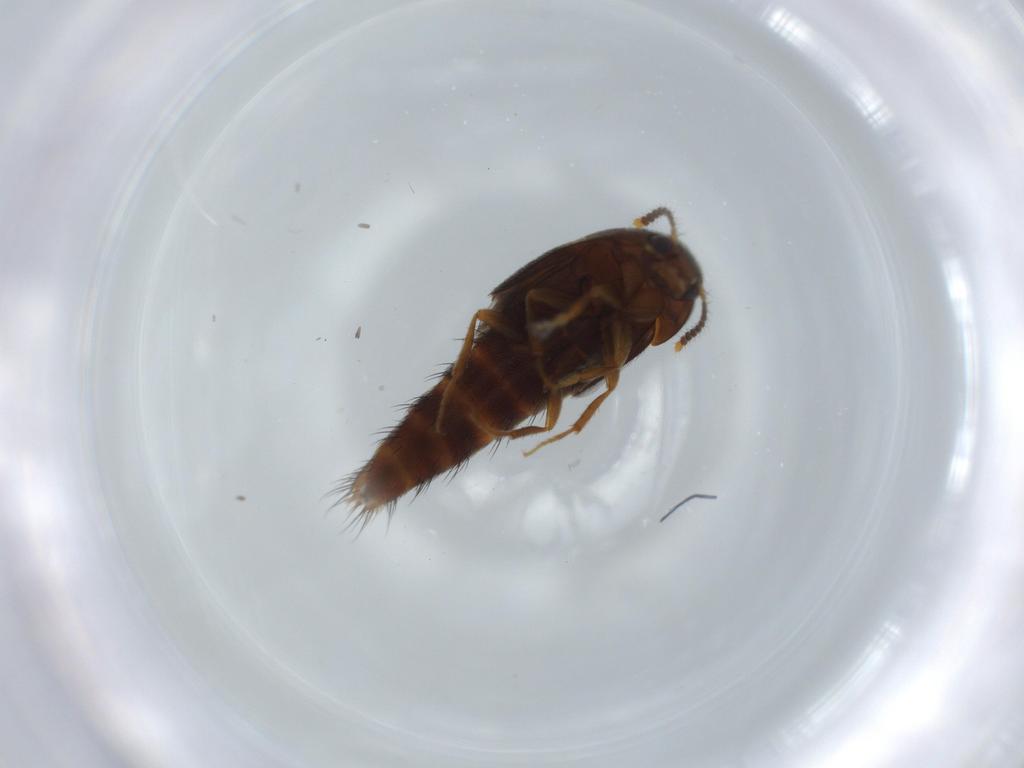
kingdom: Animalia
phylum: Arthropoda
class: Insecta
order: Coleoptera
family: Staphylinidae
